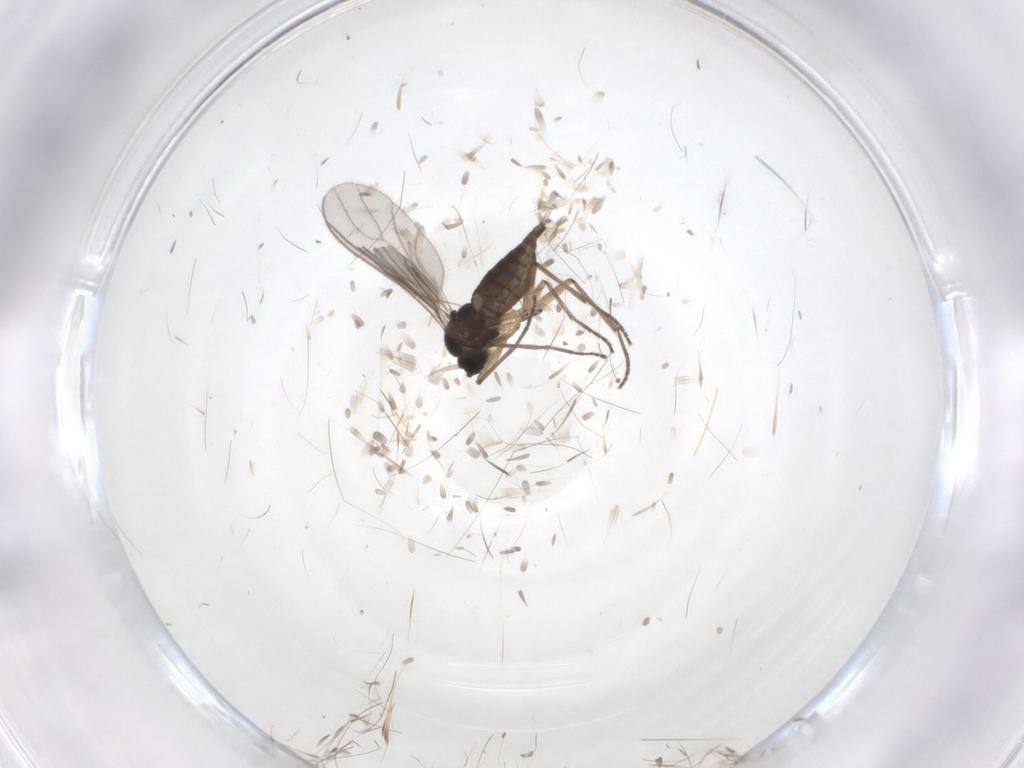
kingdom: Animalia
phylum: Arthropoda
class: Insecta
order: Diptera
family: Sciaridae
